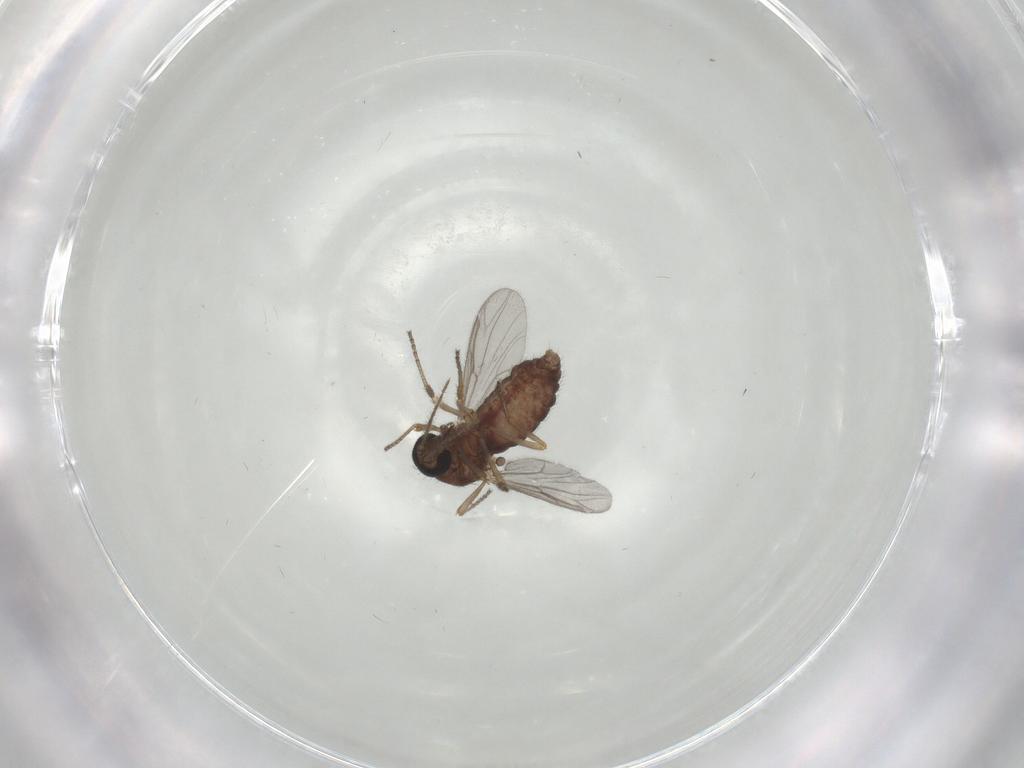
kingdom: Animalia
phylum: Arthropoda
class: Insecta
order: Diptera
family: Ceratopogonidae
